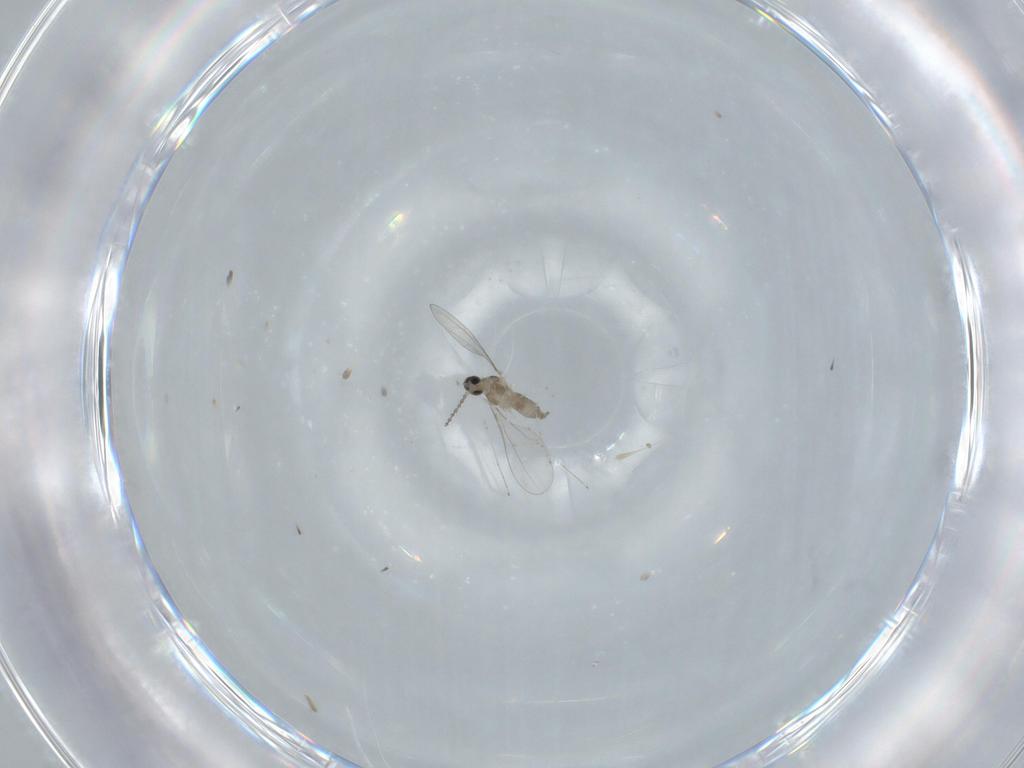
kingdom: Animalia
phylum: Arthropoda
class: Insecta
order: Diptera
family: Cecidomyiidae
